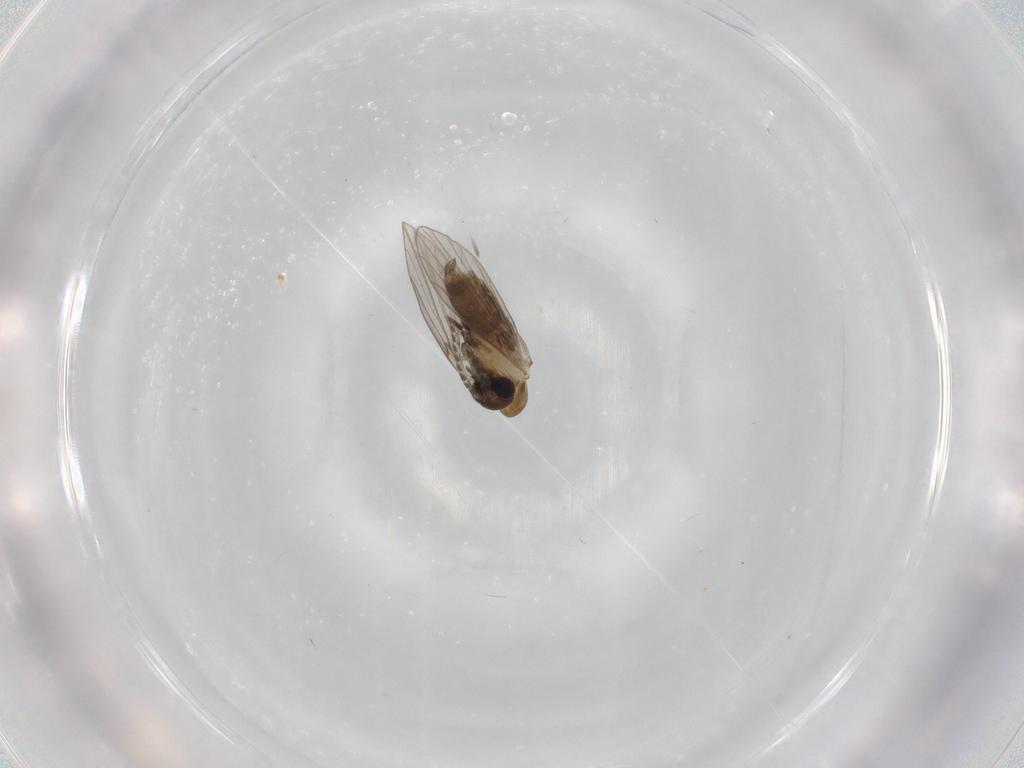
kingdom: Animalia
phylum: Arthropoda
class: Insecta
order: Diptera
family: Psychodidae
